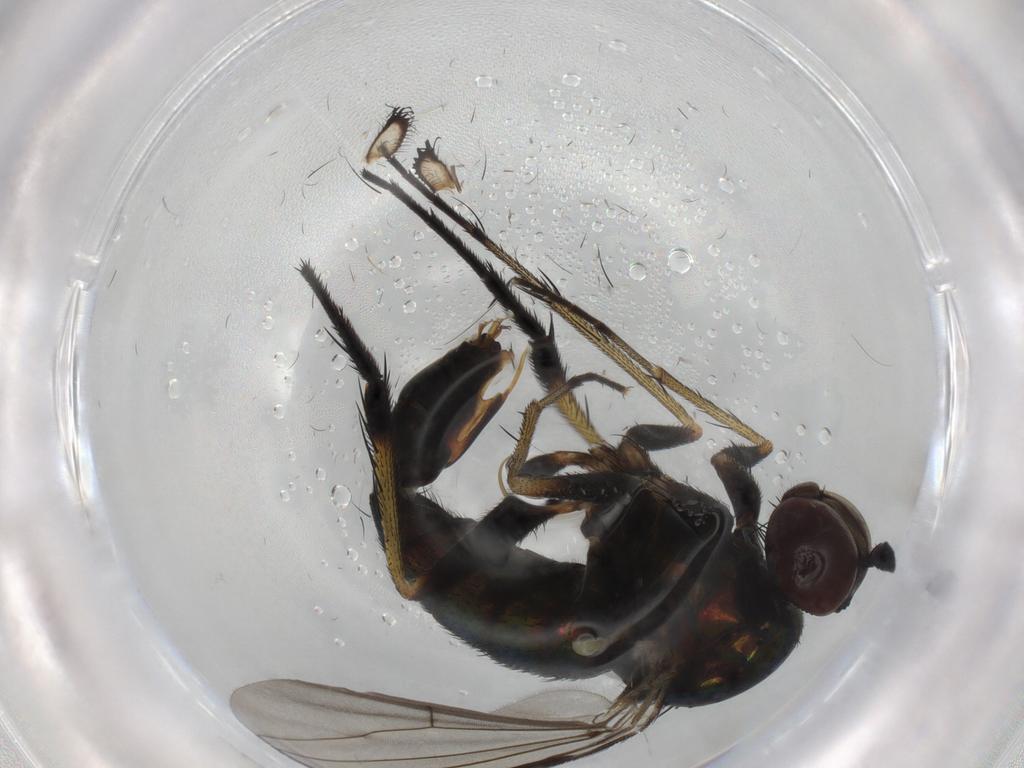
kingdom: Animalia
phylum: Arthropoda
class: Insecta
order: Diptera
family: Dolichopodidae
